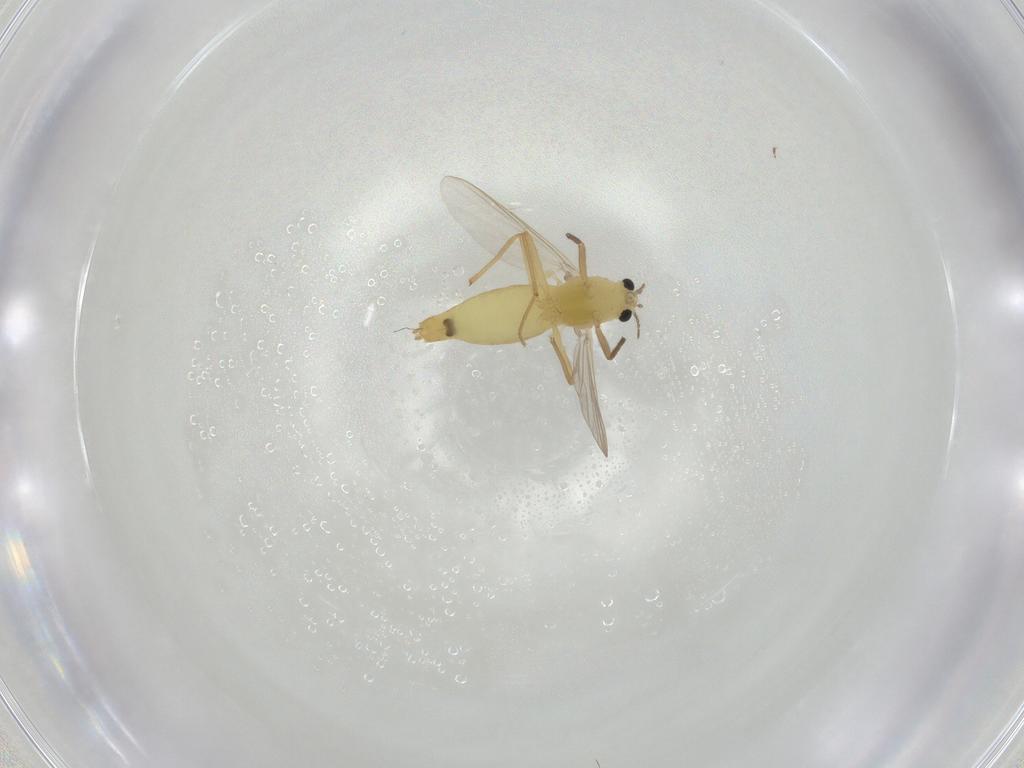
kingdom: Animalia
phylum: Arthropoda
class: Insecta
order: Diptera
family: Chironomidae
